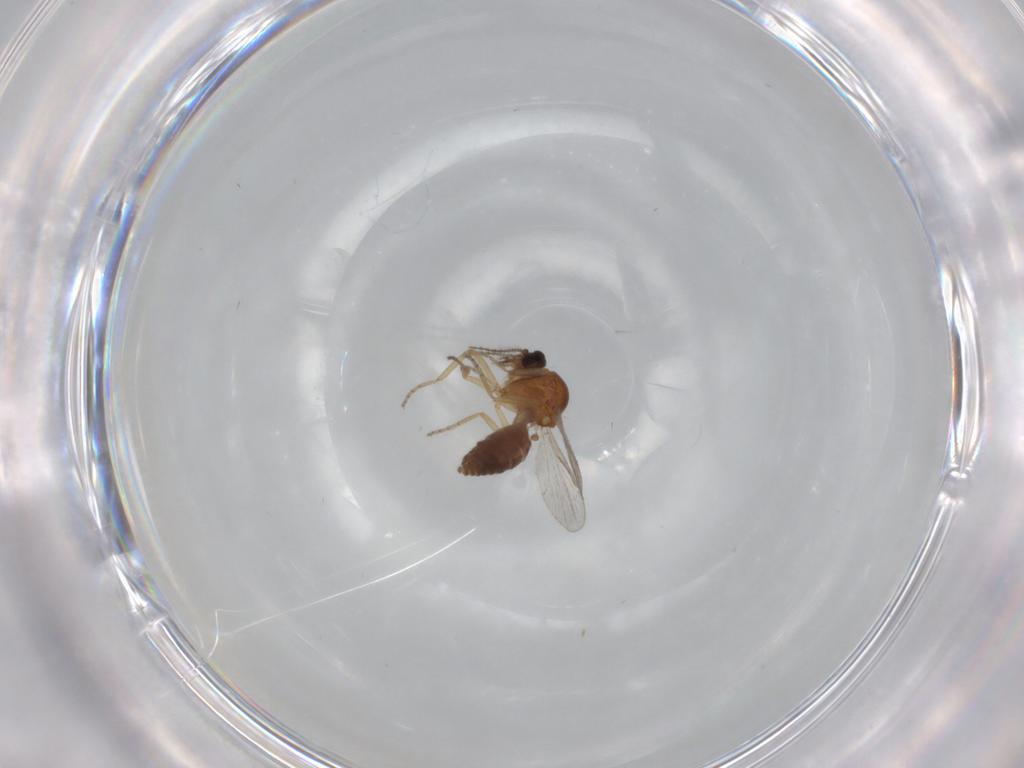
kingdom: Animalia
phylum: Arthropoda
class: Insecta
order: Diptera
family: Ceratopogonidae
